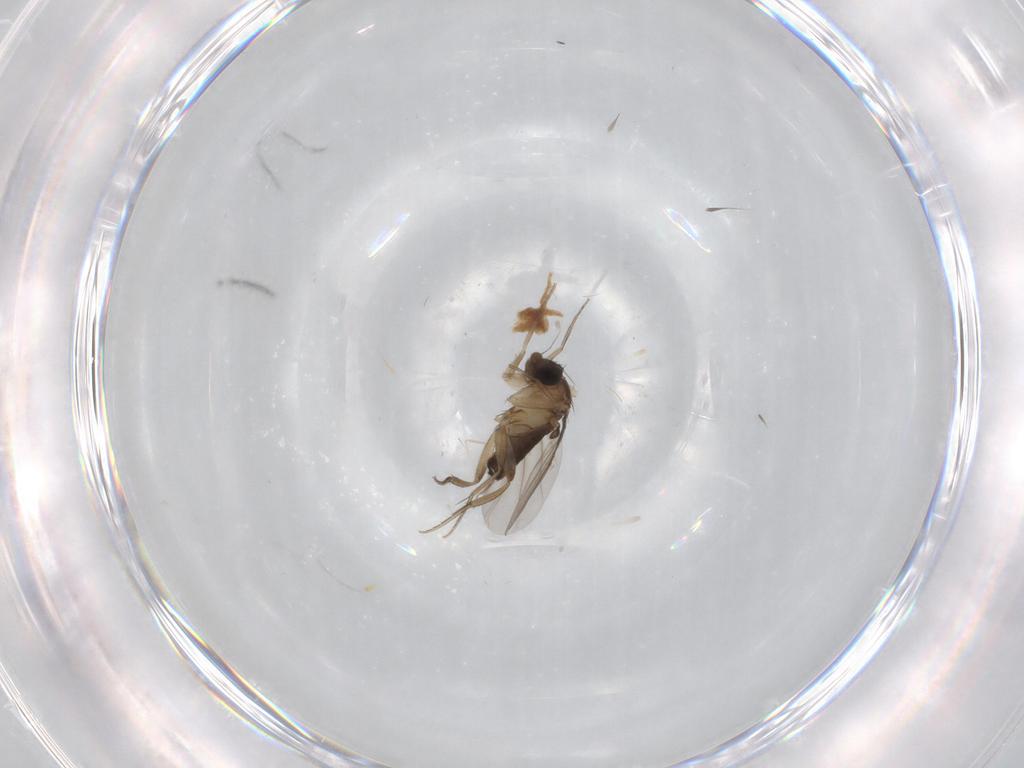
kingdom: Animalia
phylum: Arthropoda
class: Insecta
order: Diptera
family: Phoridae
